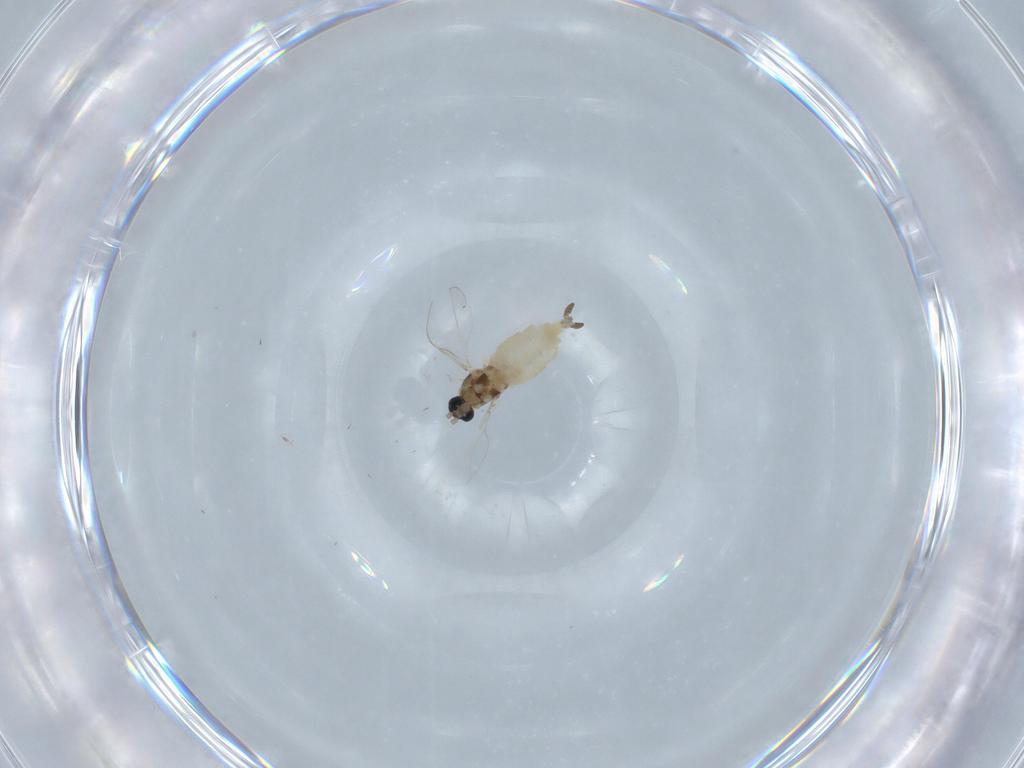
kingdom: Animalia
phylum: Arthropoda
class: Insecta
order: Diptera
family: Cecidomyiidae
